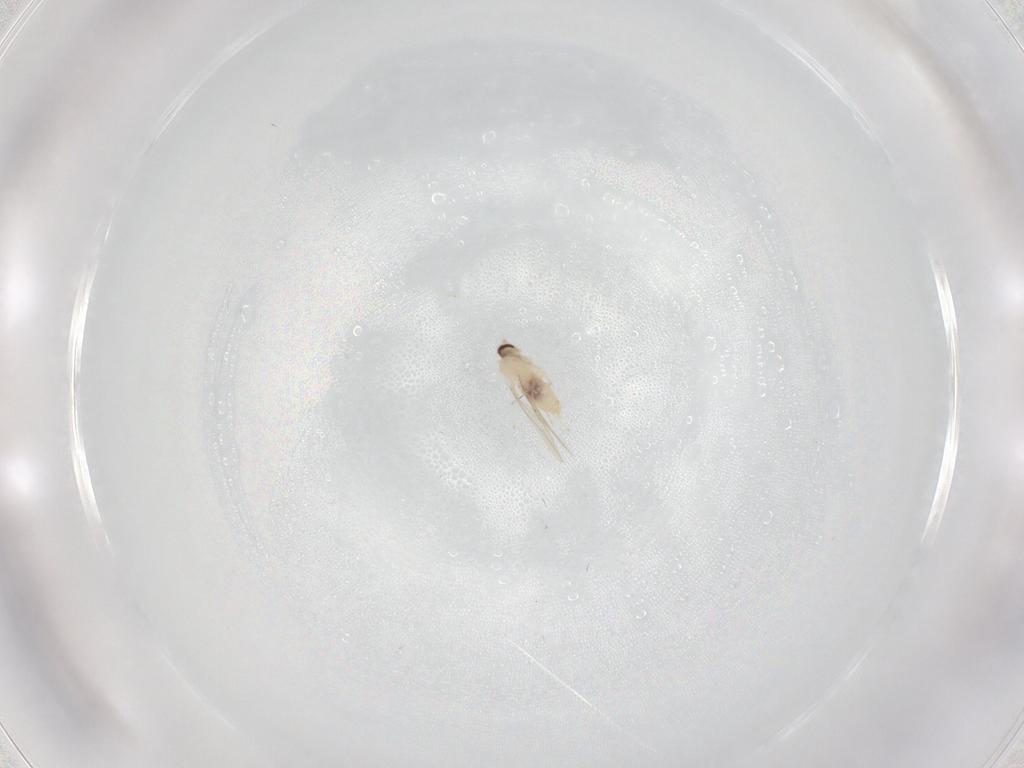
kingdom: Animalia
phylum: Arthropoda
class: Insecta
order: Diptera
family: Cecidomyiidae
